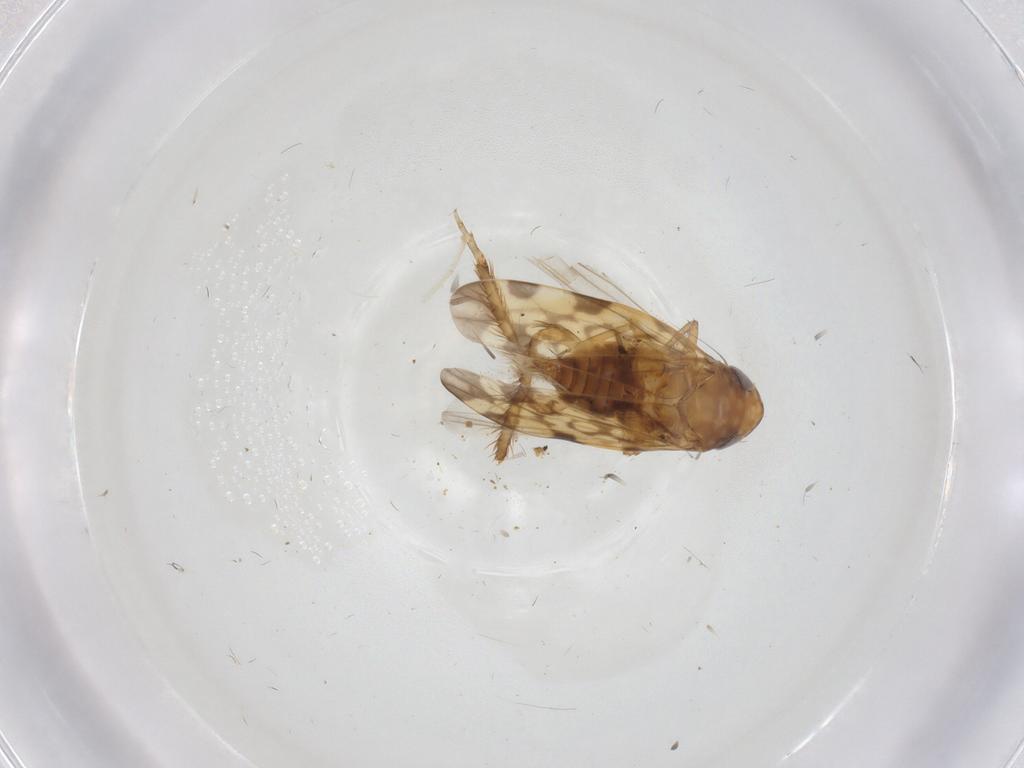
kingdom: Animalia
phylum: Arthropoda
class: Insecta
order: Hemiptera
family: Cicadellidae
